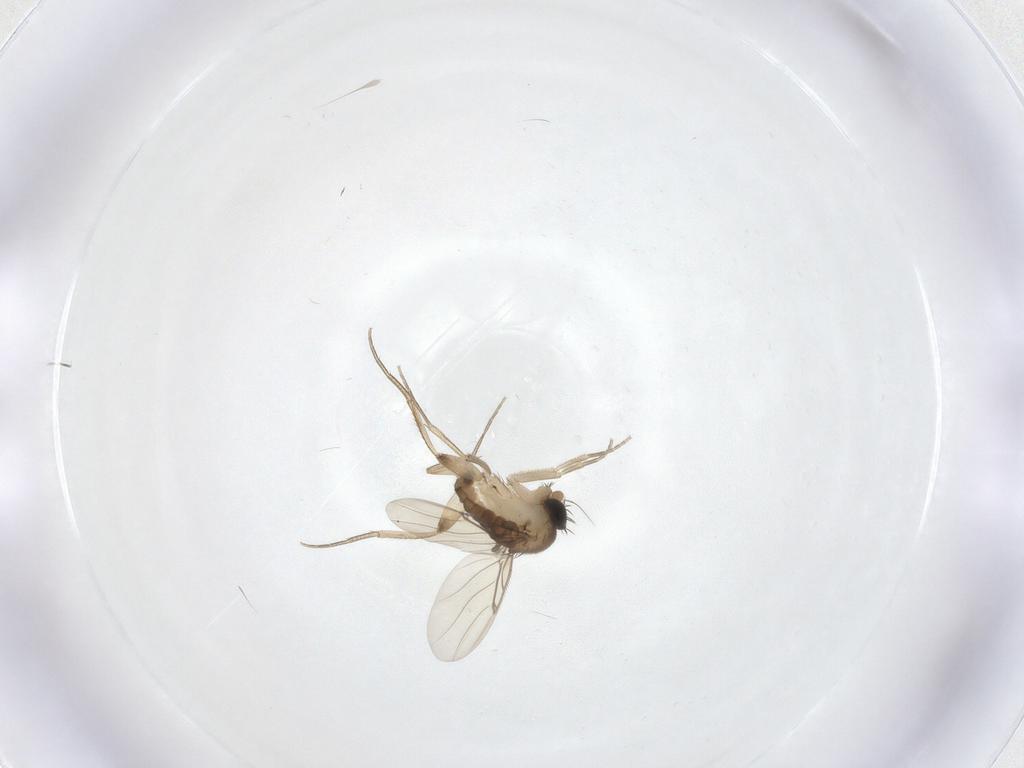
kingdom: Animalia
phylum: Arthropoda
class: Insecta
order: Diptera
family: Phoridae
